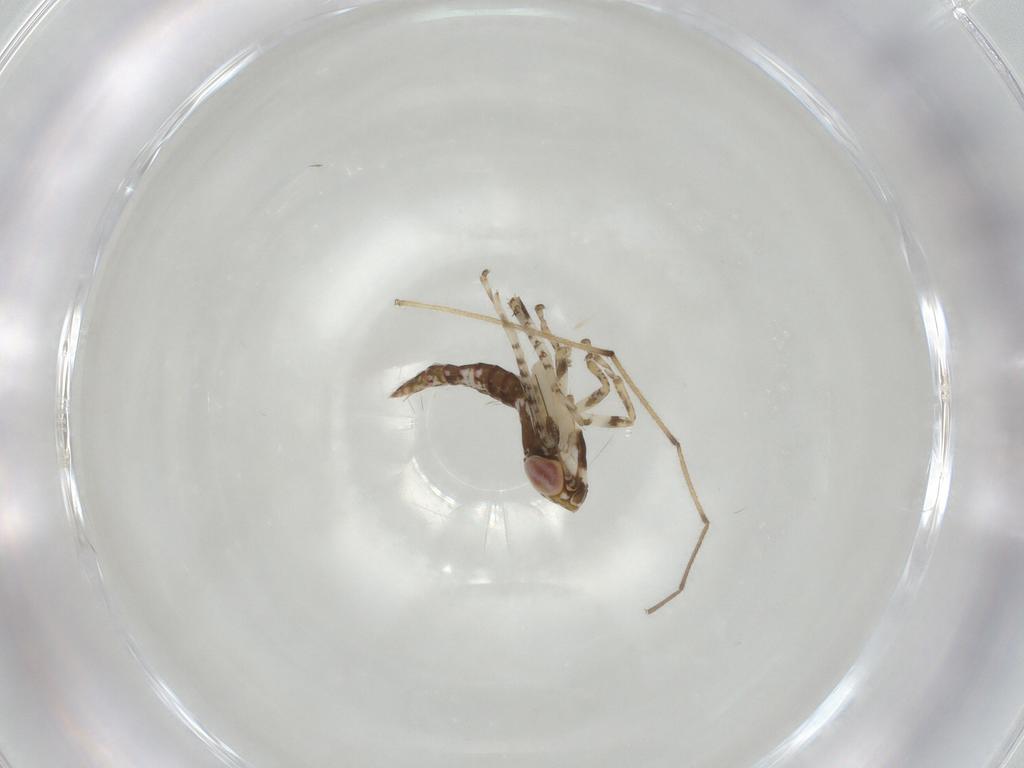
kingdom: Animalia
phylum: Arthropoda
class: Insecta
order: Hemiptera
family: Cicadellidae
